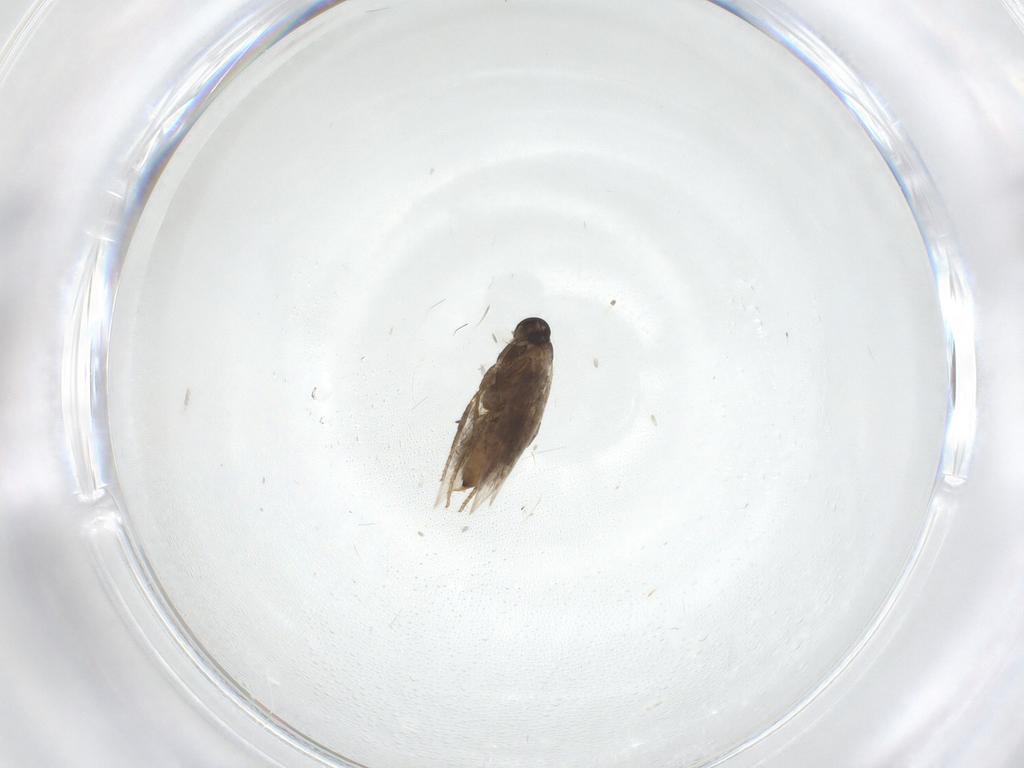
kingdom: Animalia
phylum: Arthropoda
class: Insecta
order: Lepidoptera
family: Heliozelidae
